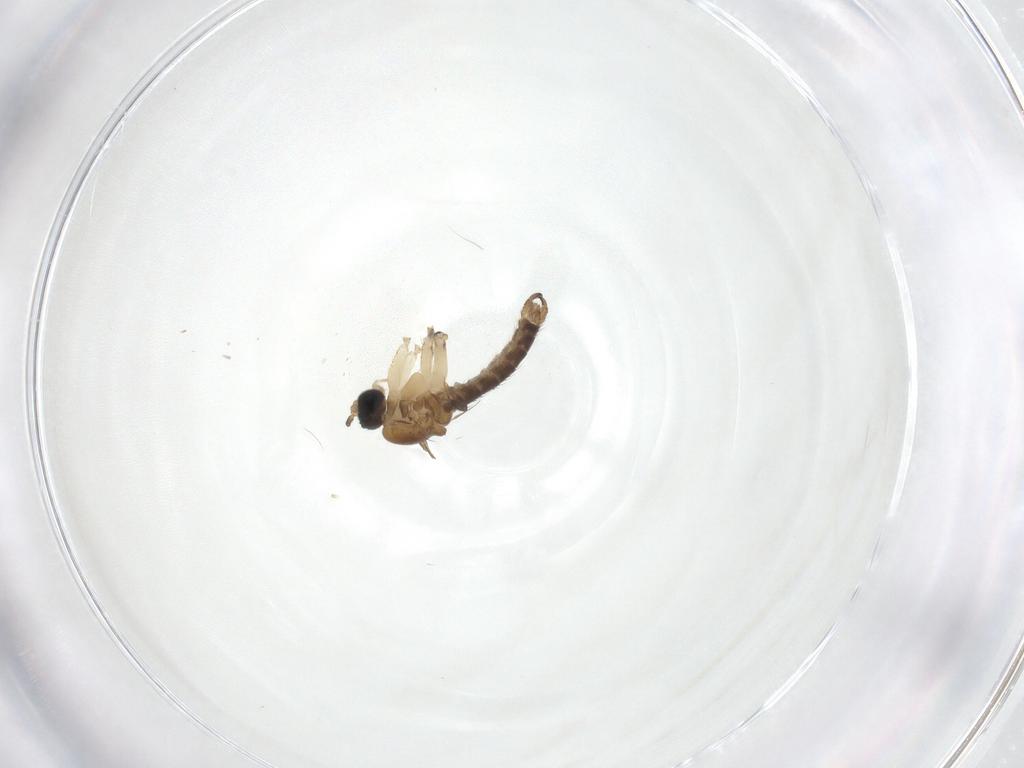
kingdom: Animalia
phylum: Arthropoda
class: Insecta
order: Diptera
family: Sciaridae
